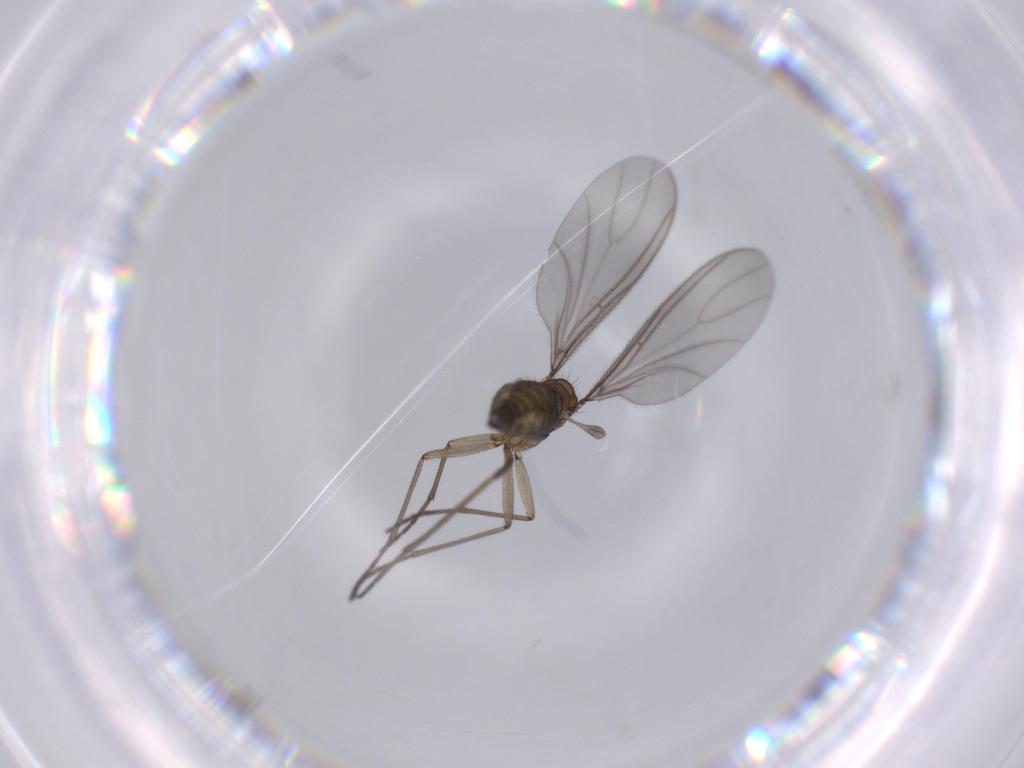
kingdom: Animalia
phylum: Arthropoda
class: Insecta
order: Diptera
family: Sciaridae
